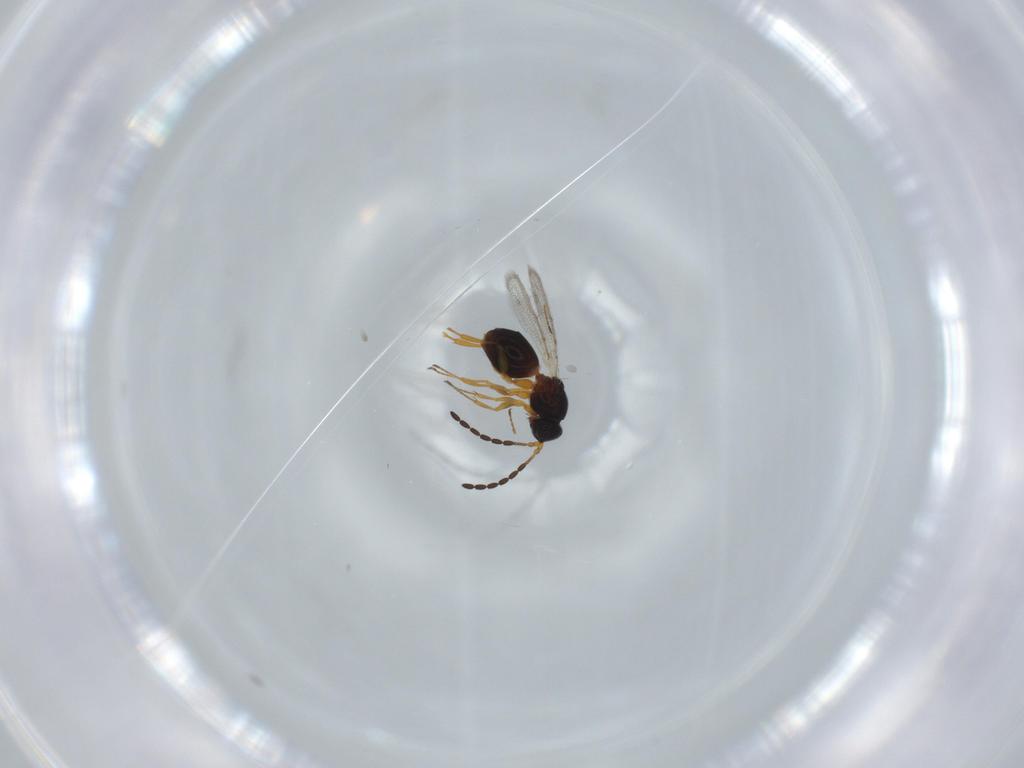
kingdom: Animalia
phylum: Arthropoda
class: Insecta
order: Hymenoptera
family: Figitidae
